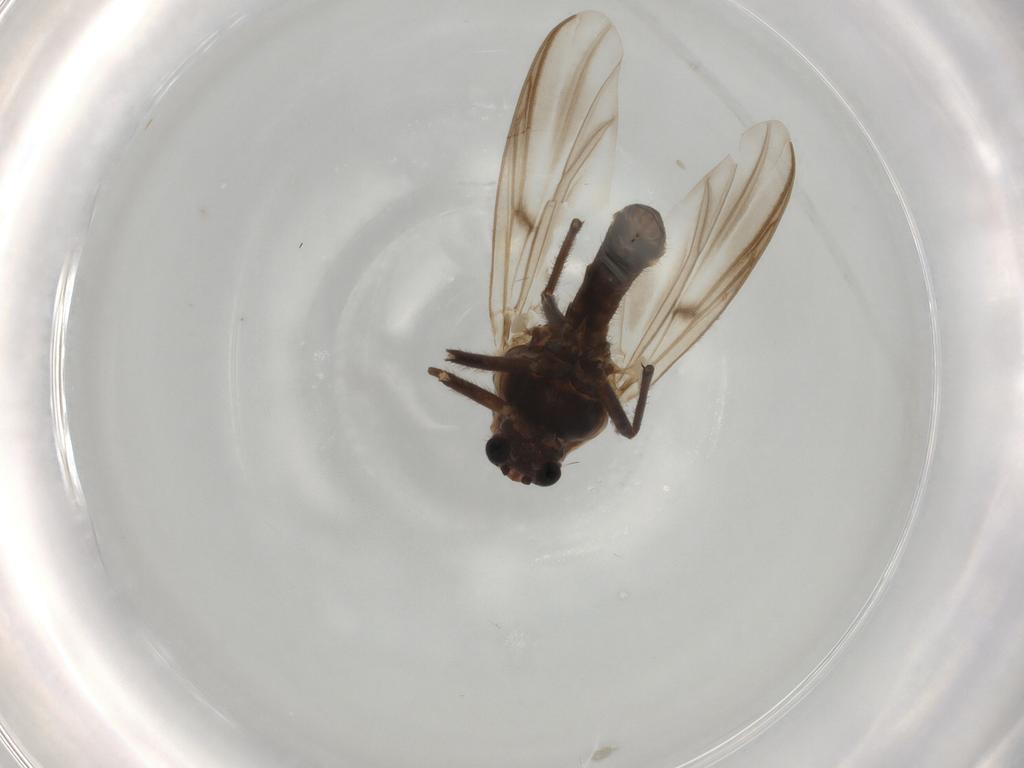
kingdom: Animalia
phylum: Arthropoda
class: Insecta
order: Diptera
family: Chironomidae
